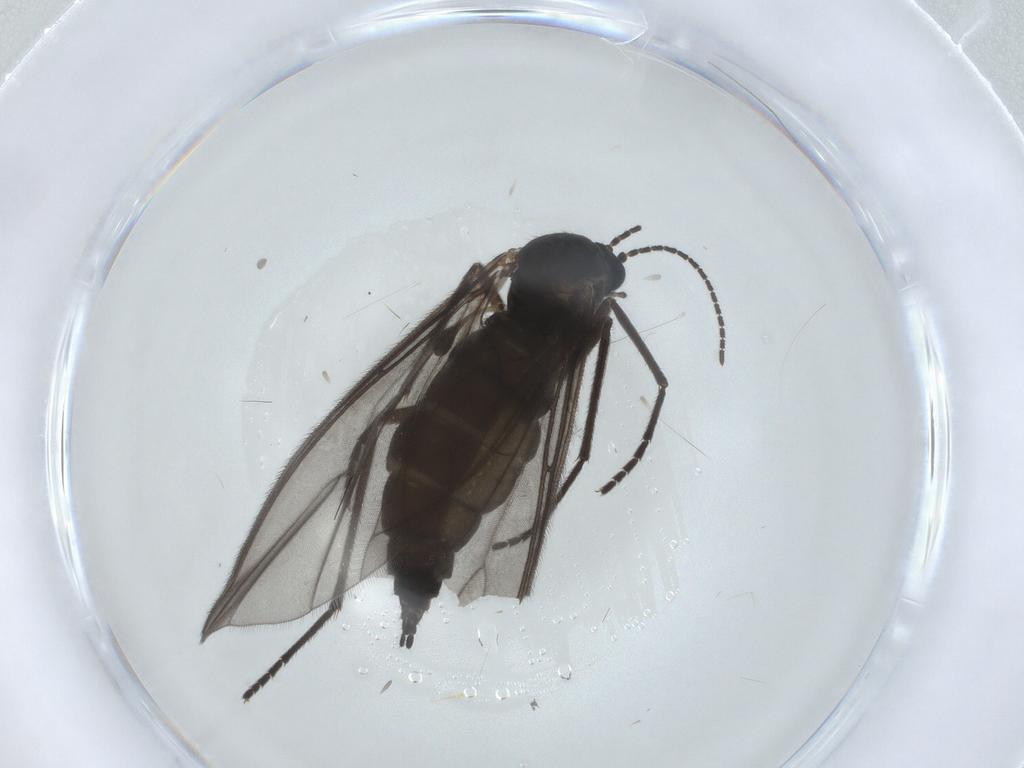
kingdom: Animalia
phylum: Arthropoda
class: Insecta
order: Diptera
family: Sciaridae
